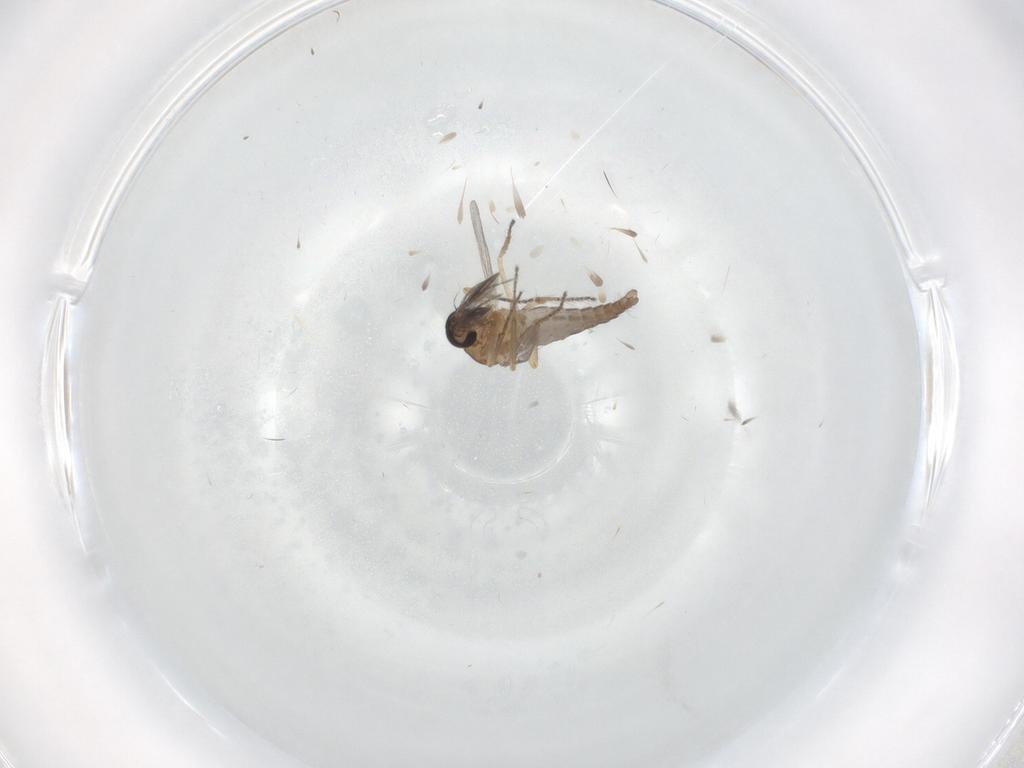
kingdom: Animalia
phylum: Arthropoda
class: Insecta
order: Diptera
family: Ceratopogonidae
